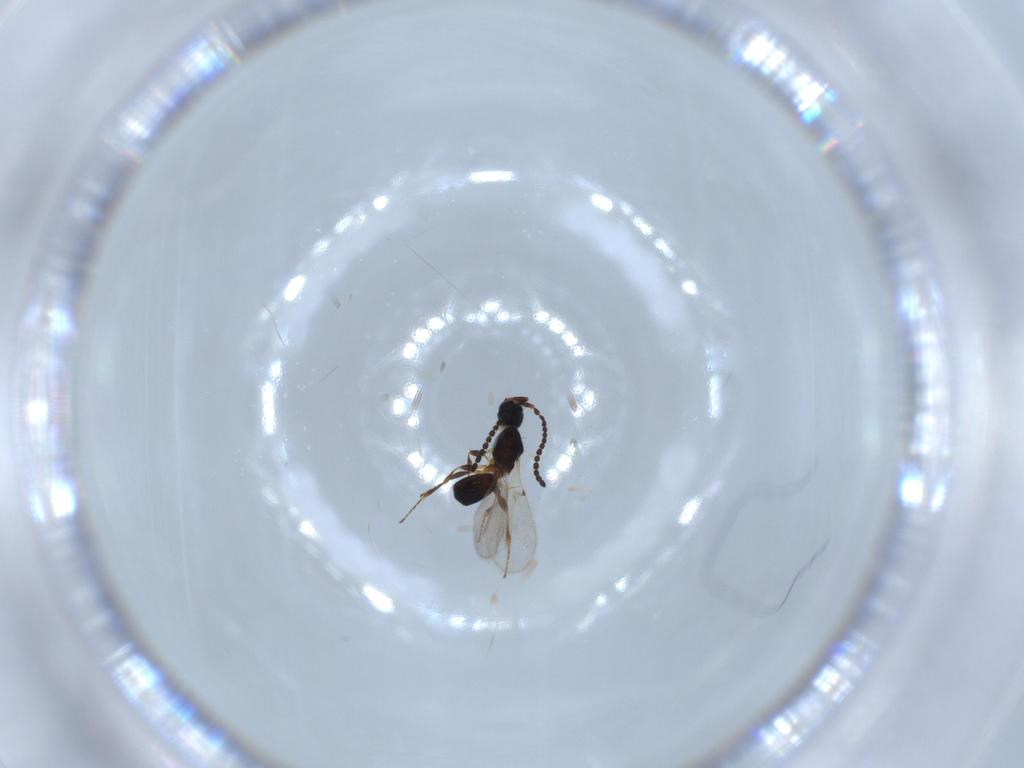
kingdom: Animalia
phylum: Arthropoda
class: Insecta
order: Hymenoptera
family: Diapriidae
